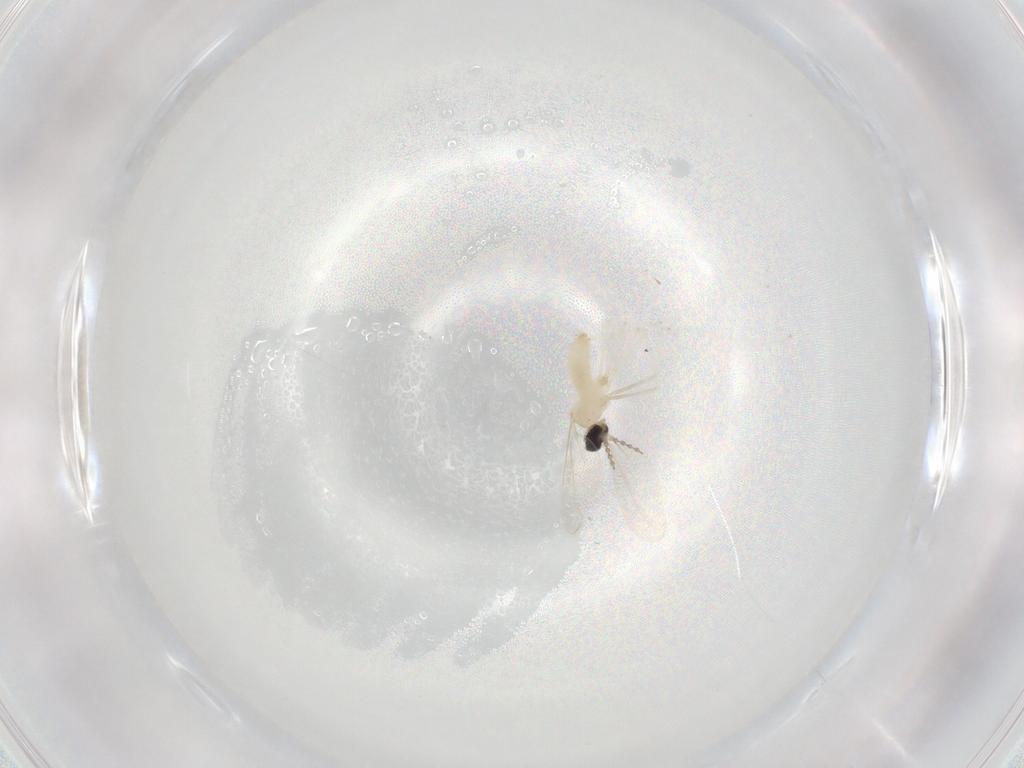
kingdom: Animalia
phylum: Arthropoda
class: Insecta
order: Diptera
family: Cecidomyiidae
